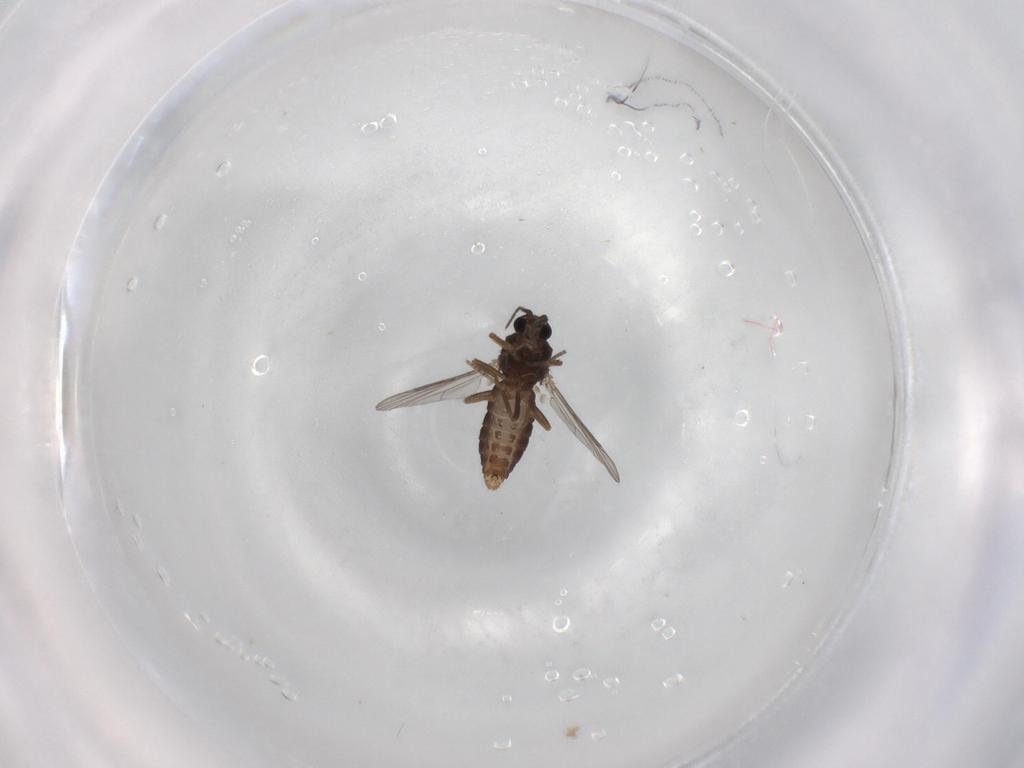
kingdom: Animalia
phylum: Arthropoda
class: Insecta
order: Diptera
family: Ceratopogonidae
